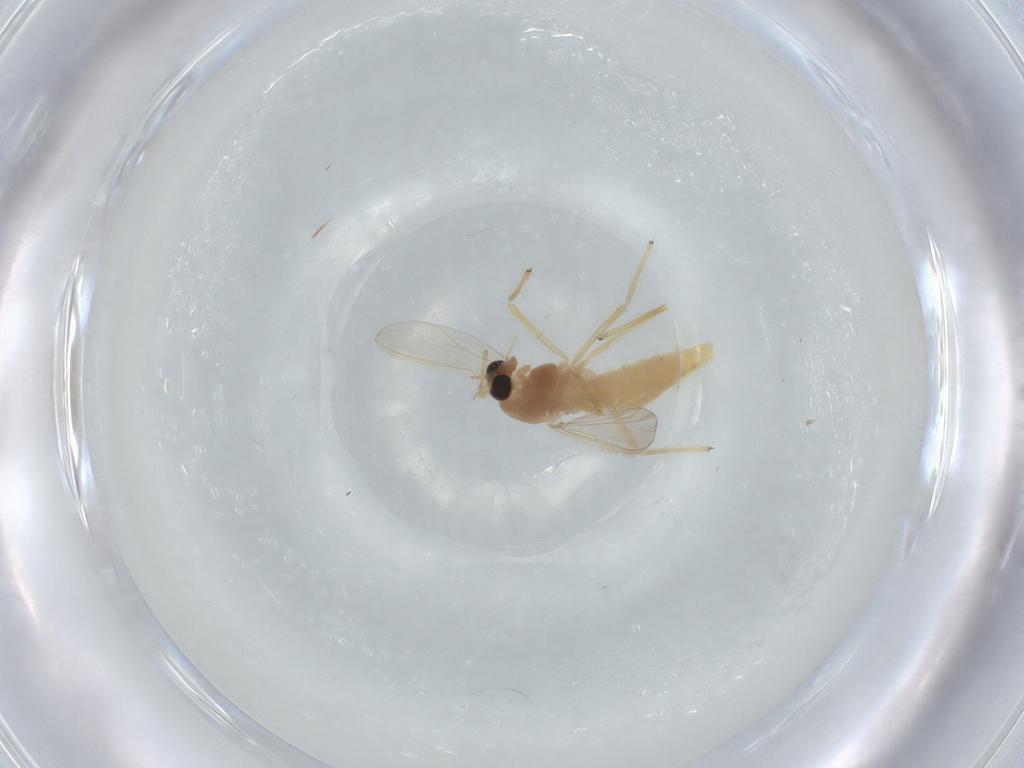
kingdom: Animalia
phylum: Arthropoda
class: Insecta
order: Diptera
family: Chironomidae
